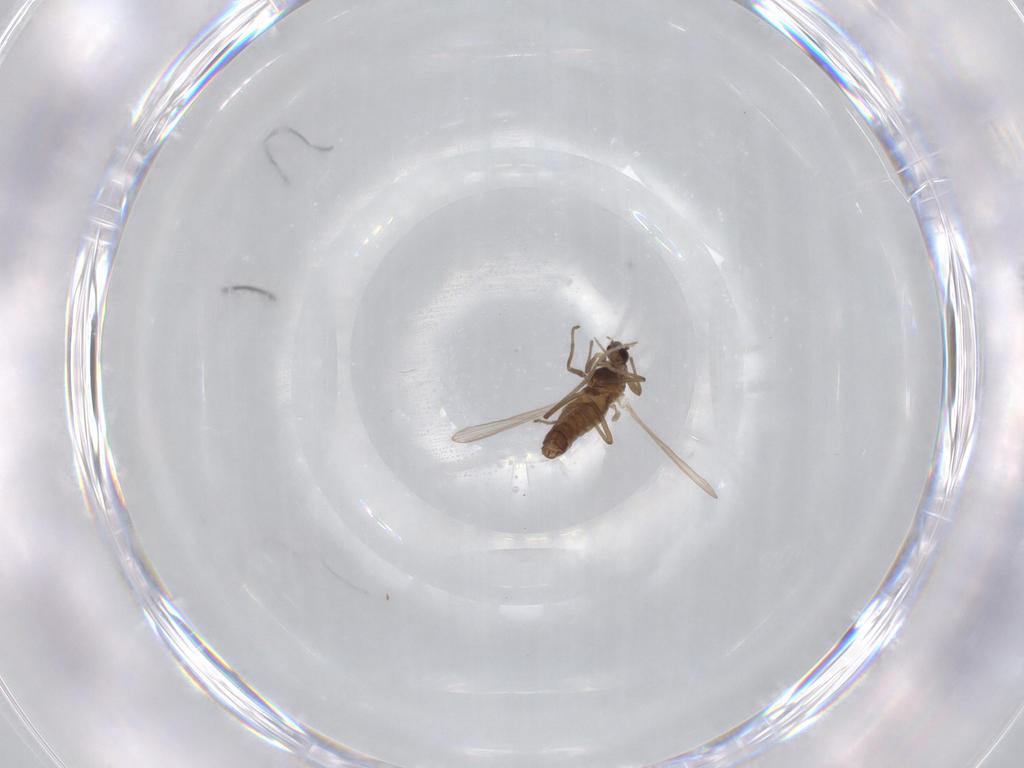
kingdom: Animalia
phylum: Arthropoda
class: Insecta
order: Diptera
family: Chironomidae
